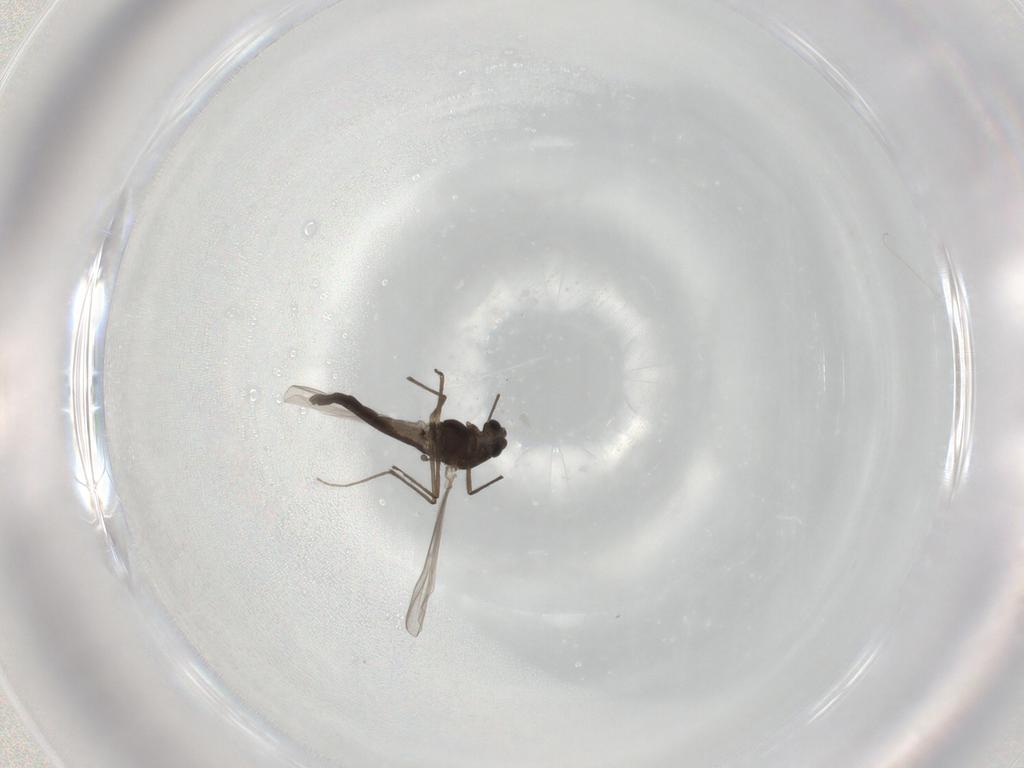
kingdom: Animalia
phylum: Arthropoda
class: Insecta
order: Diptera
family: Chironomidae
